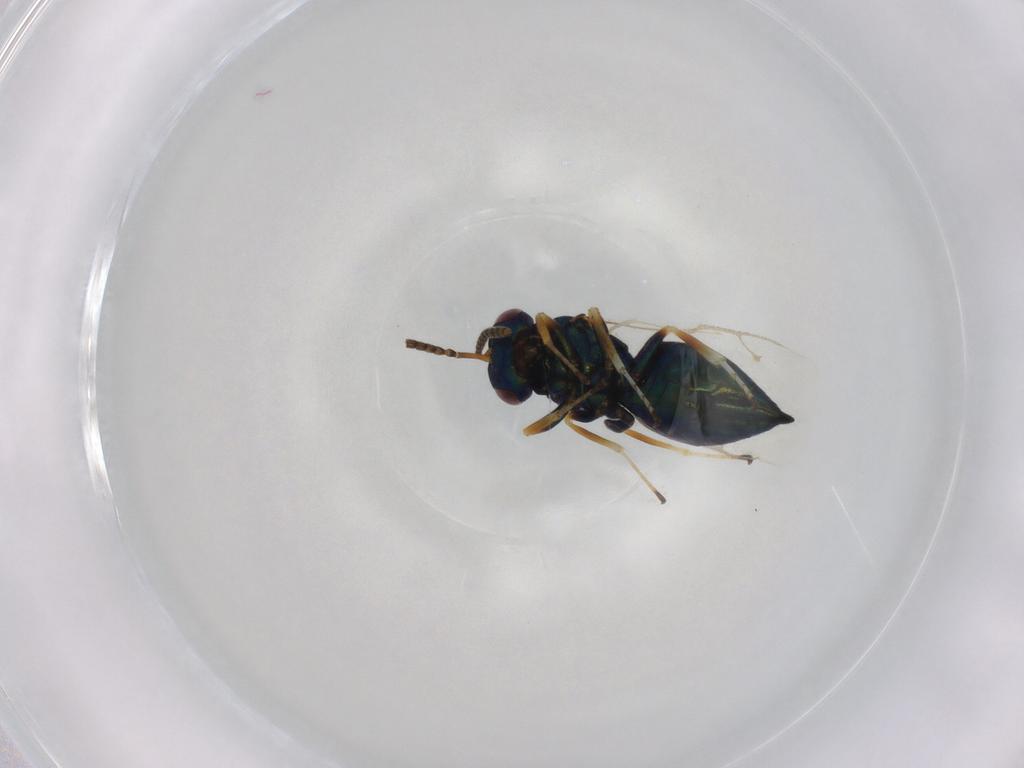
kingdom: Animalia
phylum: Arthropoda
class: Insecta
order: Hymenoptera
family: Pteromalidae
